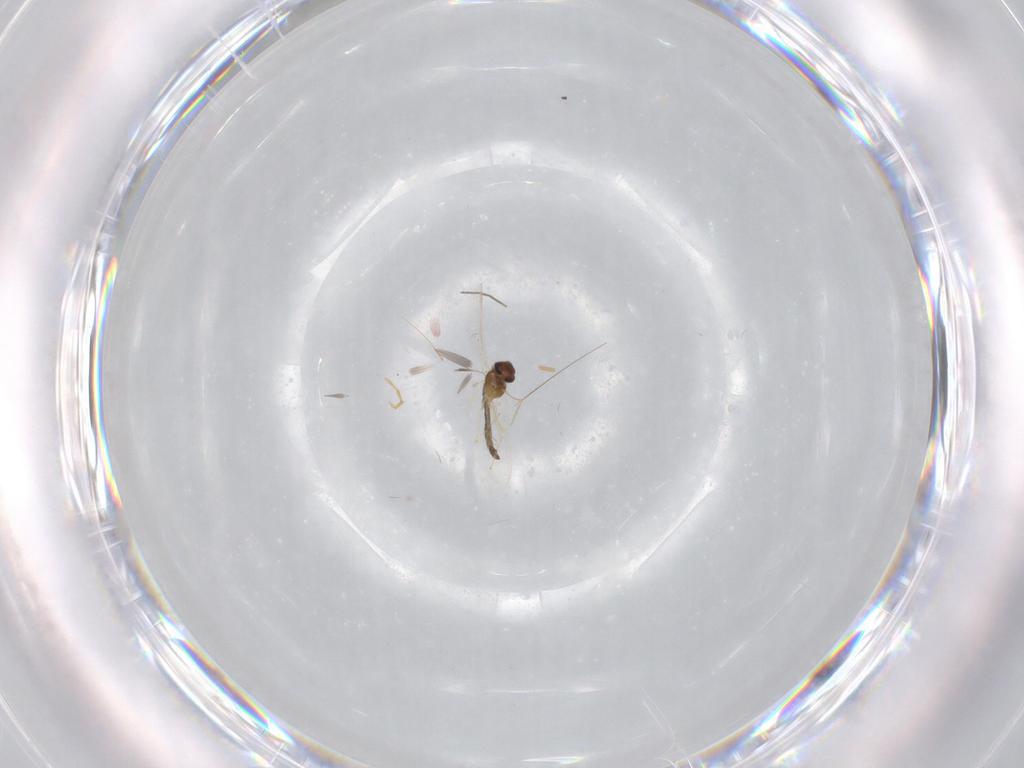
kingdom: Animalia
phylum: Arthropoda
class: Insecta
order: Diptera
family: Chironomidae
